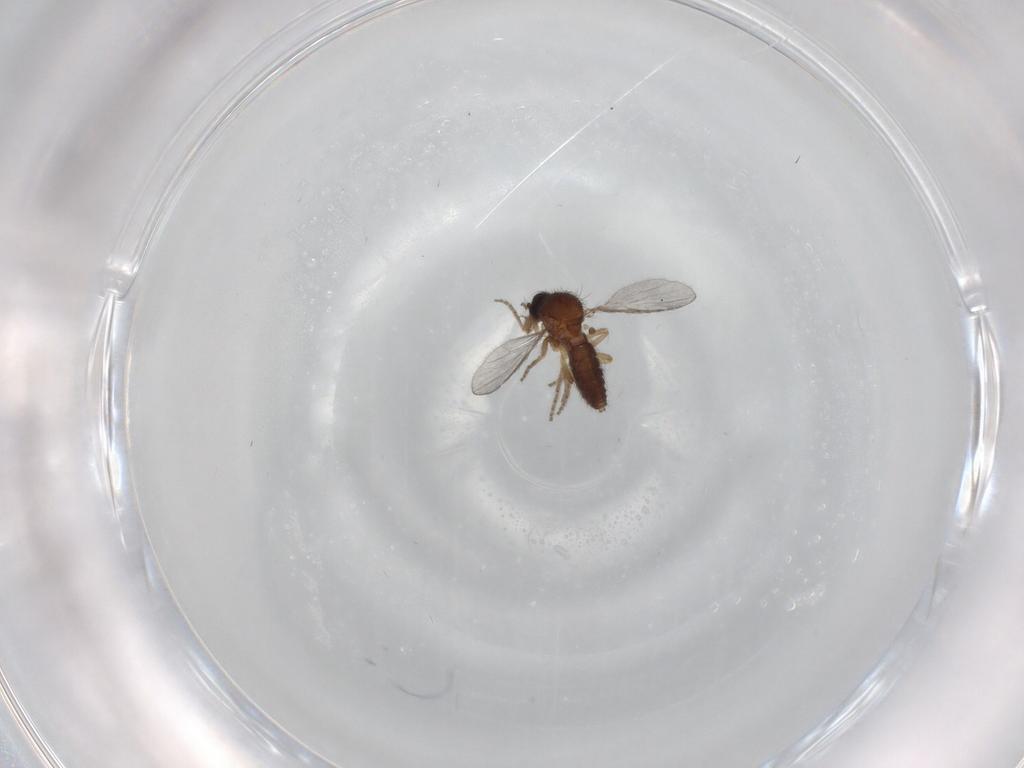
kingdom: Animalia
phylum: Arthropoda
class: Insecta
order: Diptera
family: Ceratopogonidae
